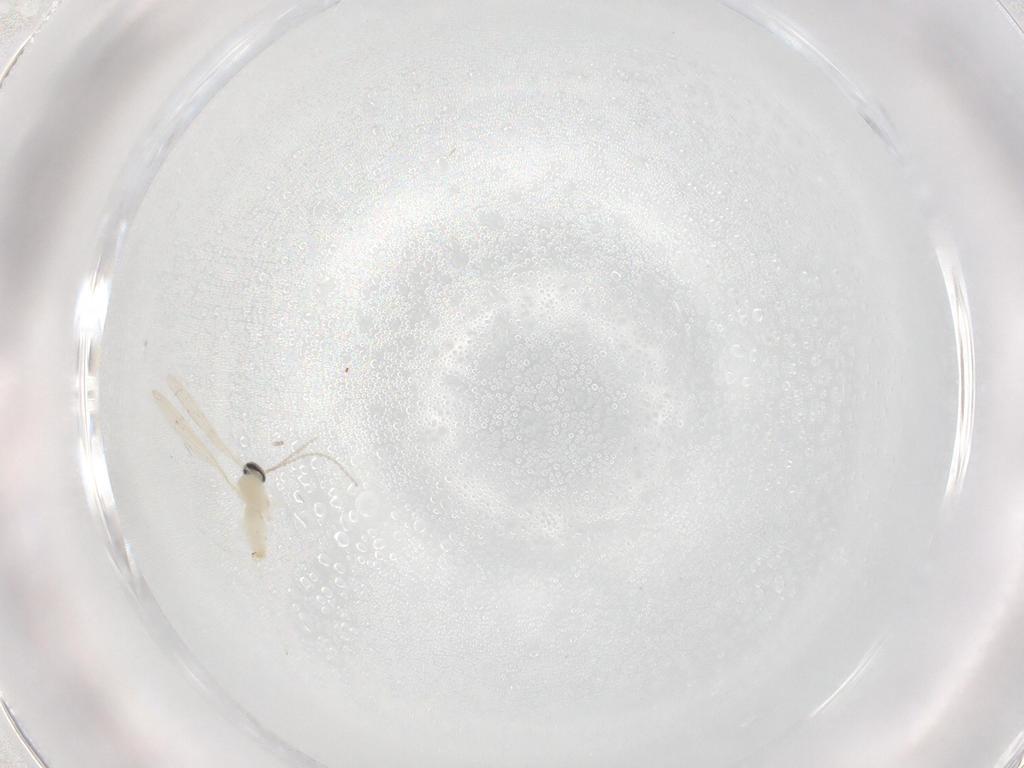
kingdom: Animalia
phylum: Arthropoda
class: Insecta
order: Diptera
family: Cecidomyiidae
